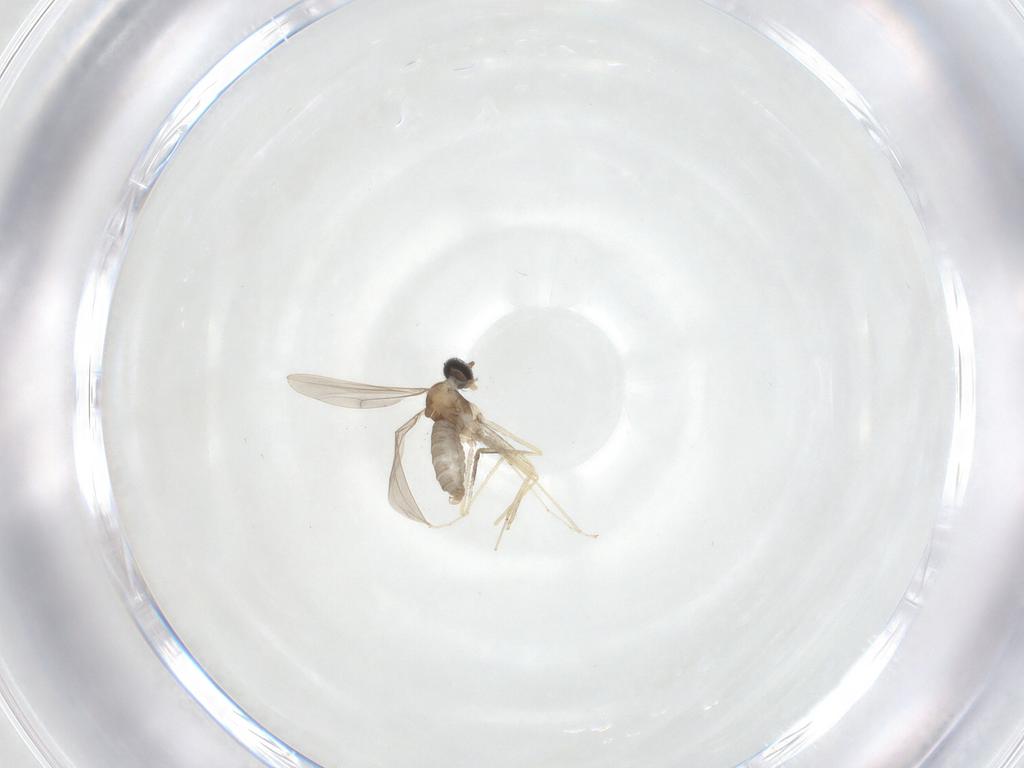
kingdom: Animalia
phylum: Arthropoda
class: Insecta
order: Diptera
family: Cecidomyiidae
